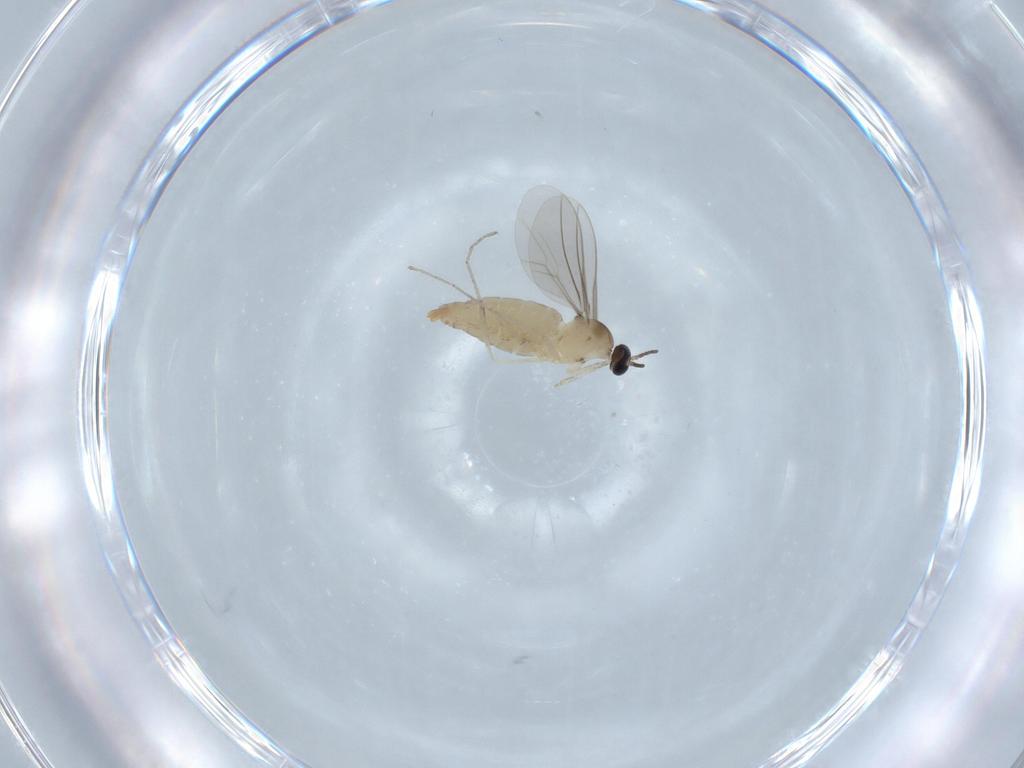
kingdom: Animalia
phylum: Arthropoda
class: Insecta
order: Diptera
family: Cecidomyiidae
